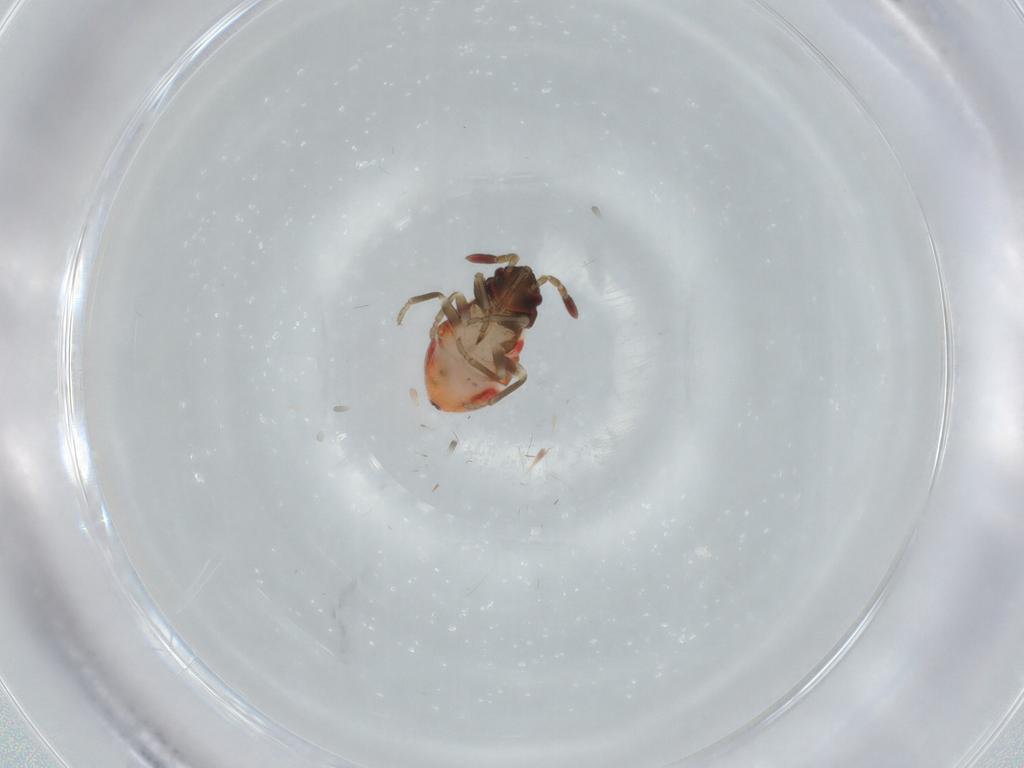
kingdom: Animalia
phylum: Arthropoda
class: Insecta
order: Hemiptera
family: Rhyparochromidae
